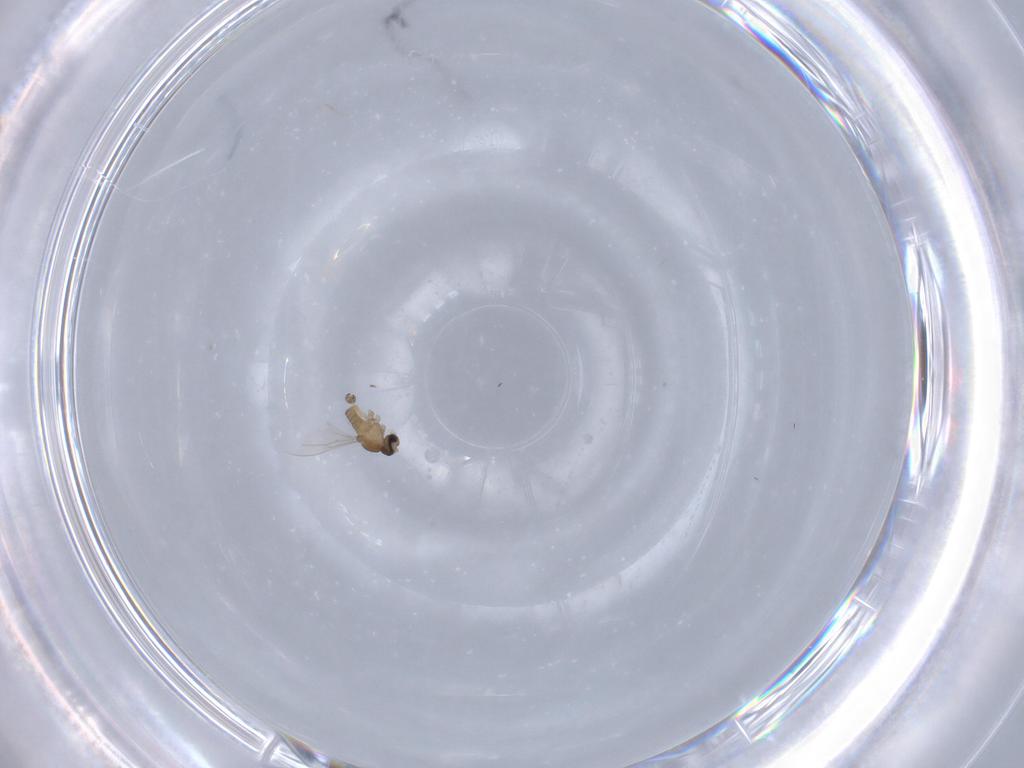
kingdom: Animalia
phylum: Arthropoda
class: Insecta
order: Diptera
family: Cecidomyiidae
